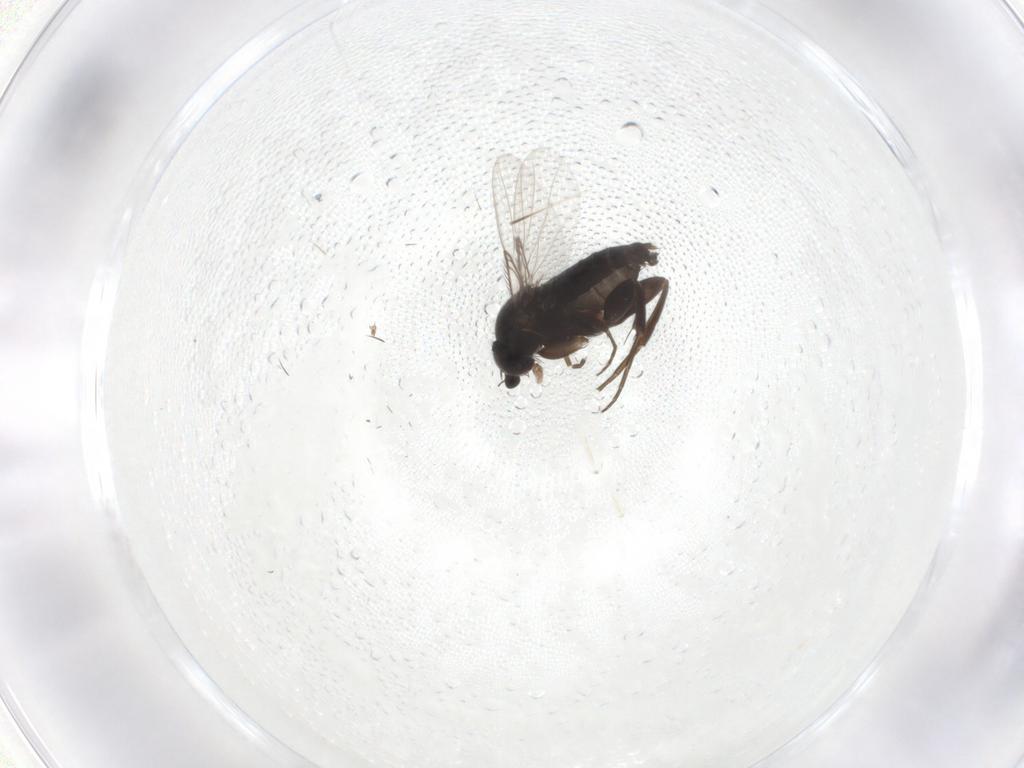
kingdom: Animalia
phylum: Arthropoda
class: Insecta
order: Diptera
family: Phoridae
